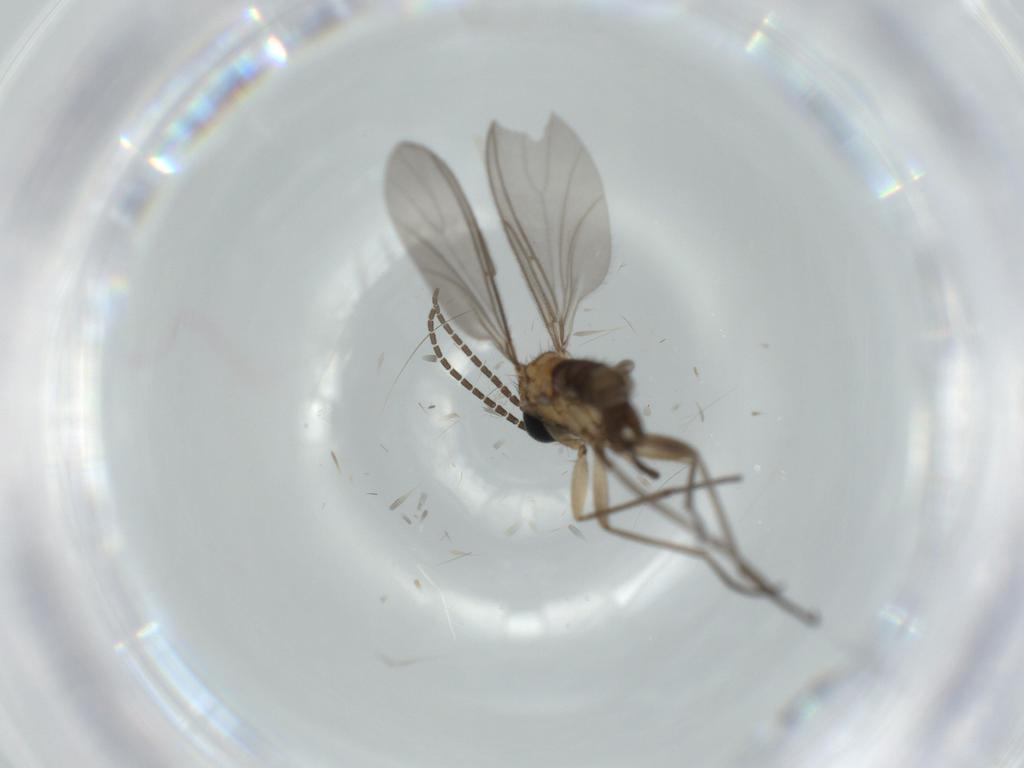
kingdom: Animalia
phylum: Arthropoda
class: Insecta
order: Diptera
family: Sciaridae
